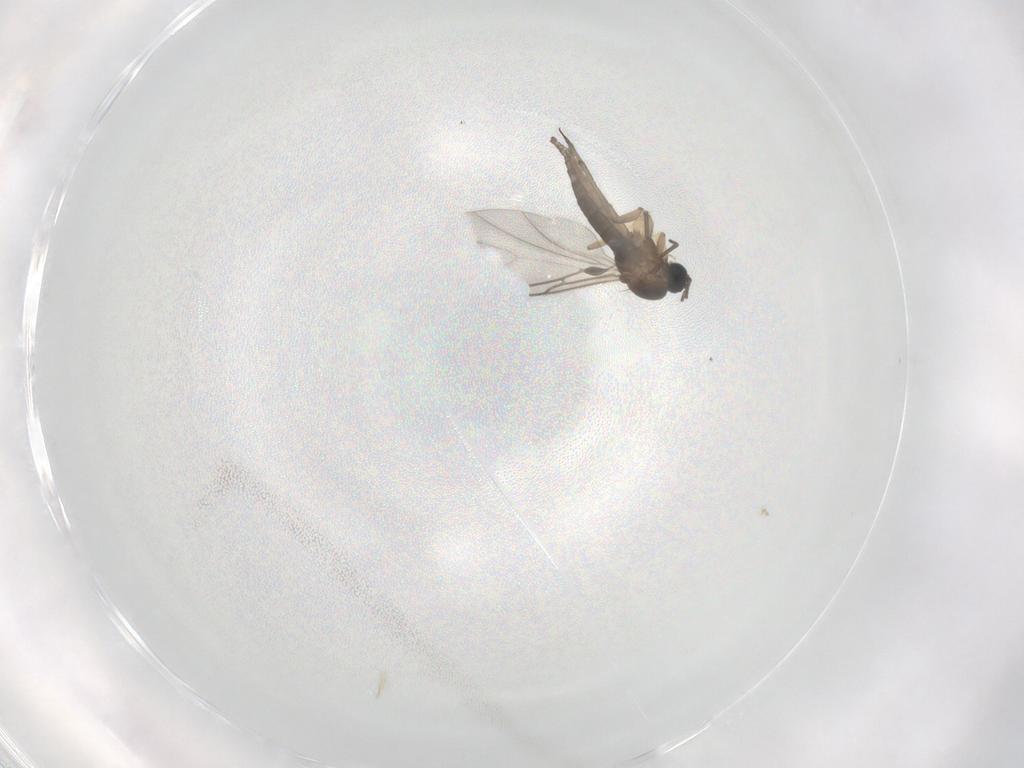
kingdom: Animalia
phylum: Arthropoda
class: Insecta
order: Diptera
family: Sciaridae
